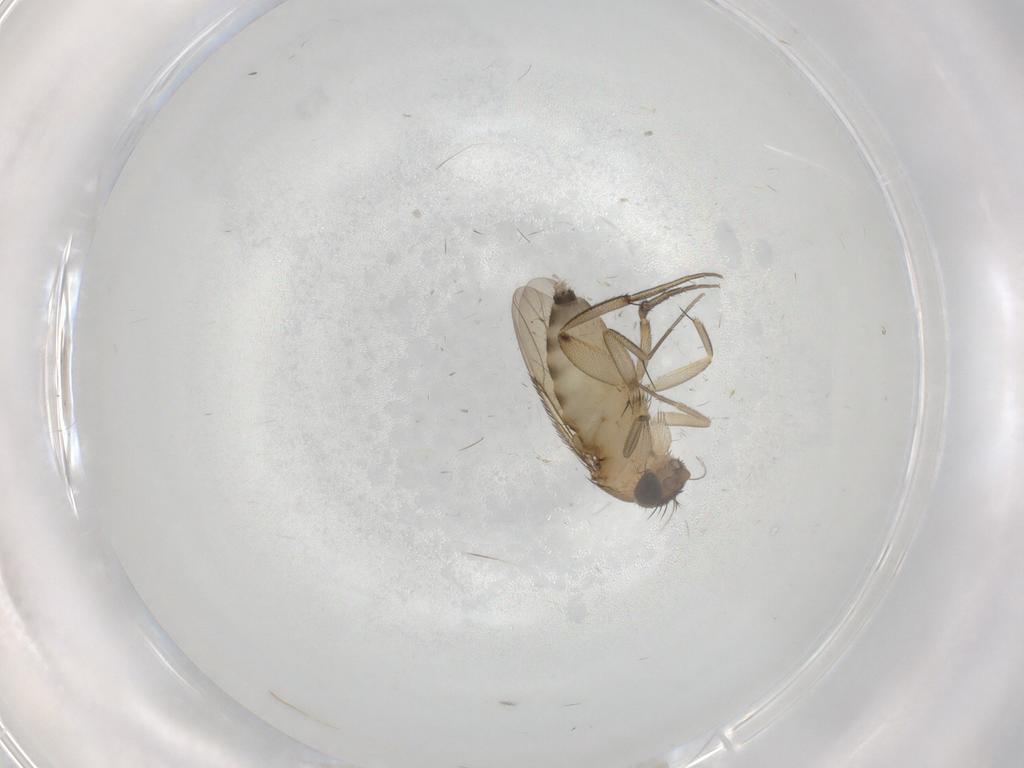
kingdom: Animalia
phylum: Arthropoda
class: Insecta
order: Diptera
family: Phoridae
